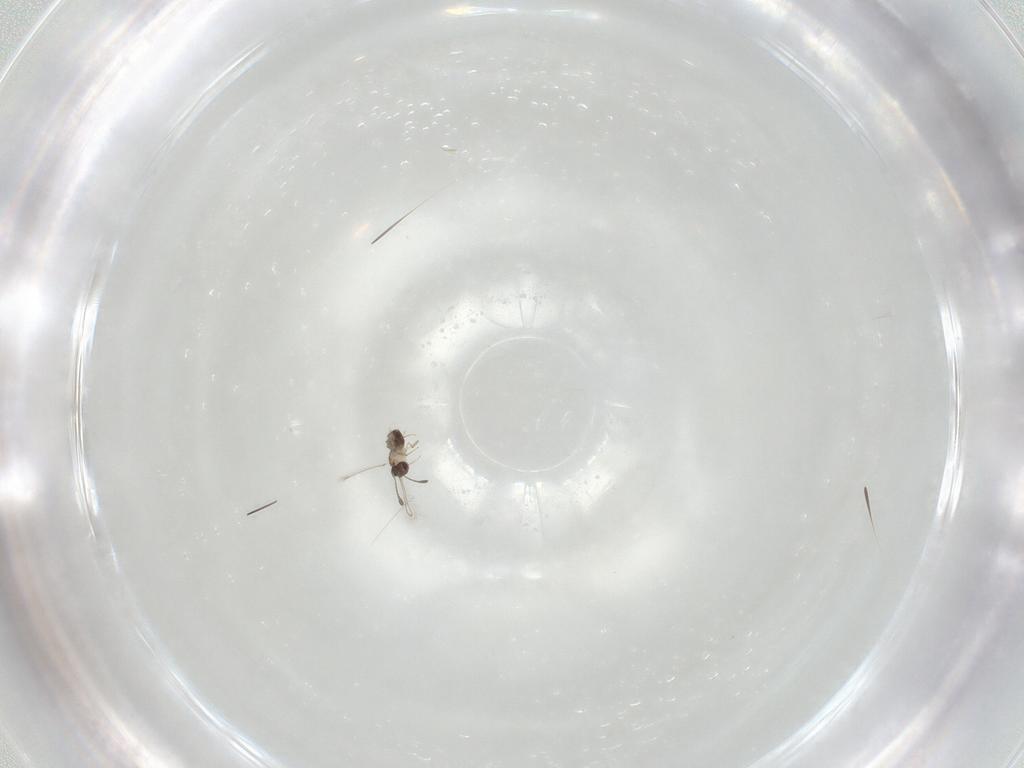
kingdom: Animalia
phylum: Arthropoda
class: Insecta
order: Hymenoptera
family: Mymaridae
